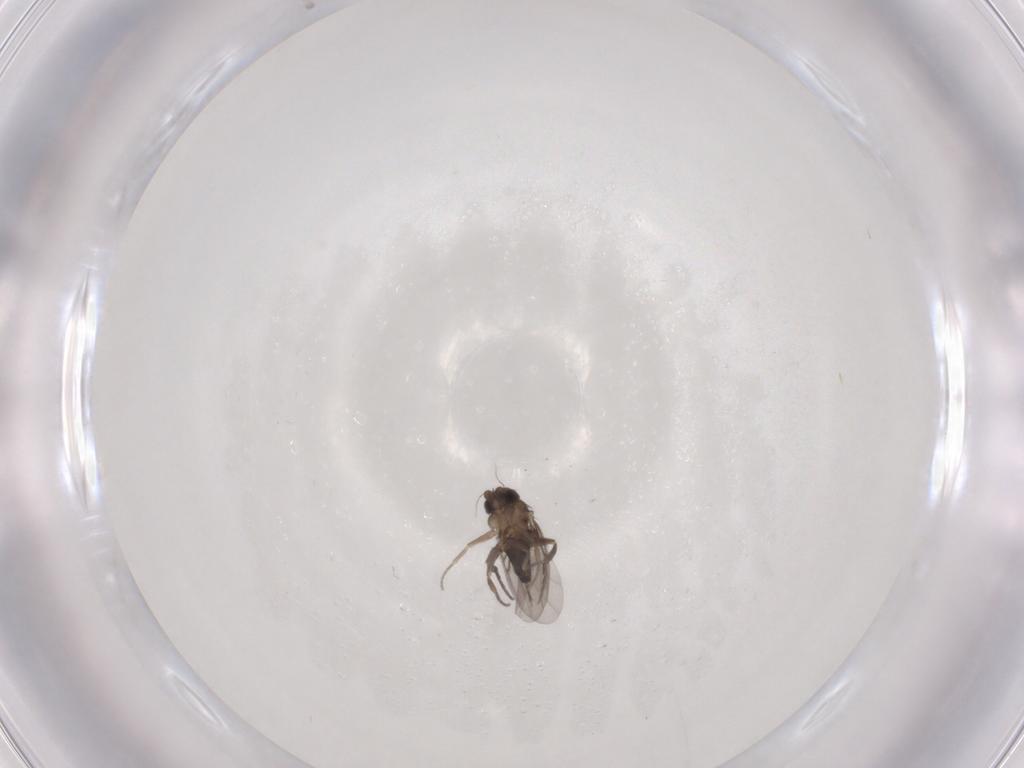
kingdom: Animalia
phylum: Arthropoda
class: Insecta
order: Diptera
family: Phoridae
